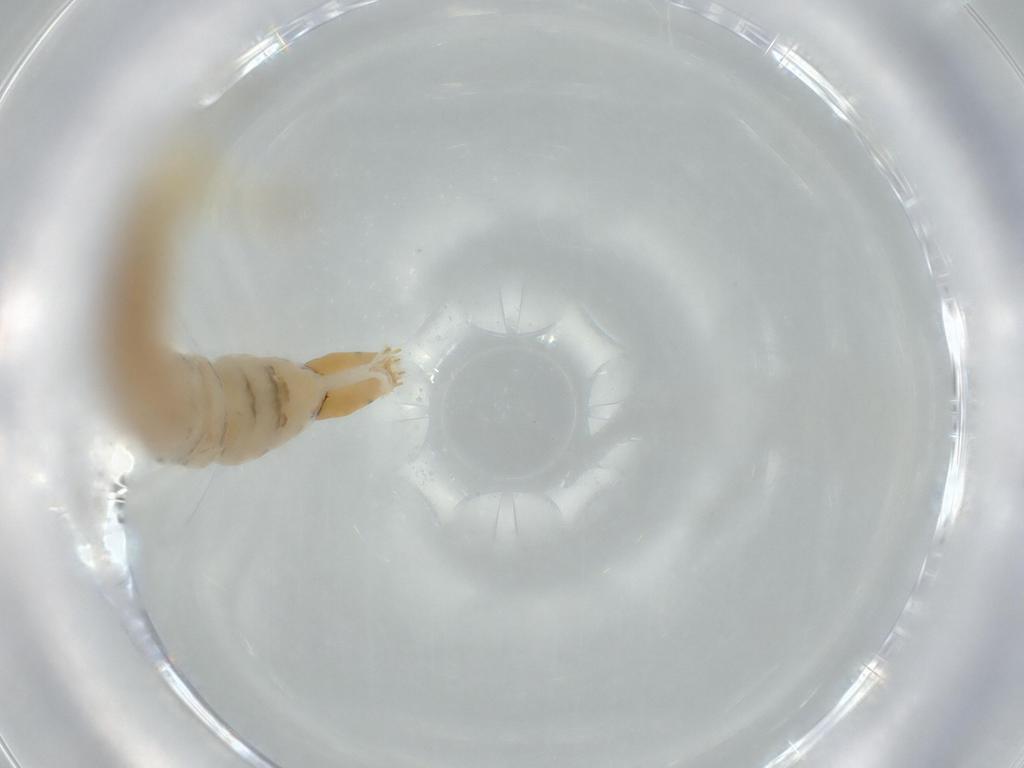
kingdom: Animalia
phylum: Arthropoda
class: Insecta
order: Diptera
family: Chironomidae
